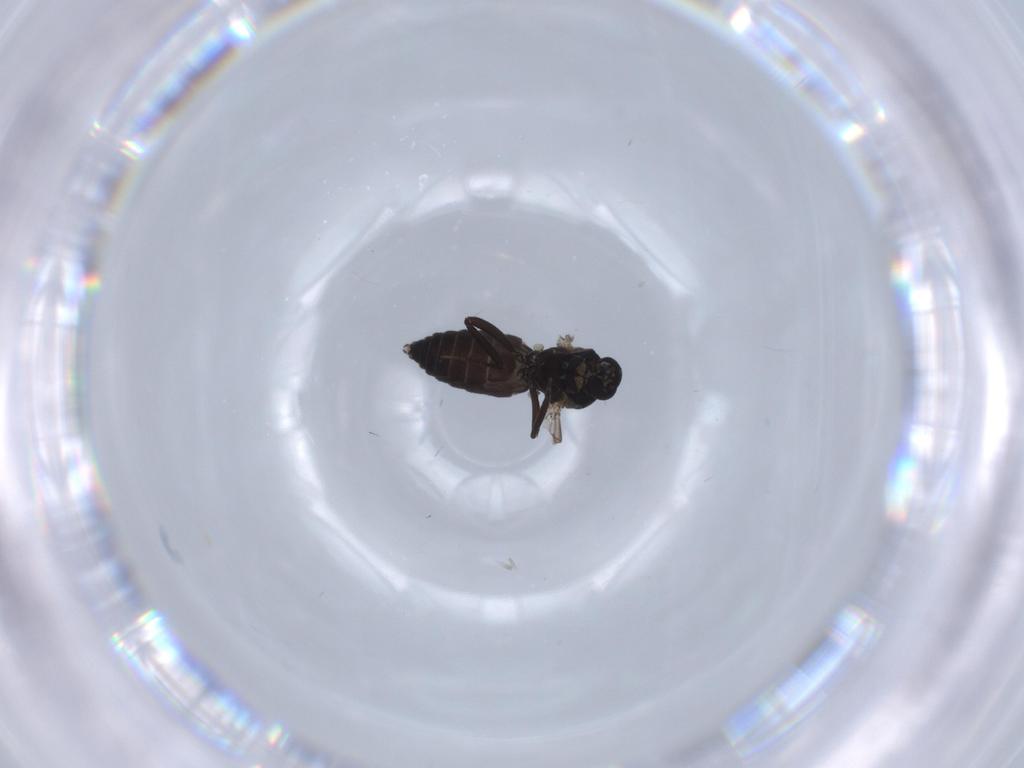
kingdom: Animalia
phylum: Arthropoda
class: Insecta
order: Diptera
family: Ceratopogonidae
